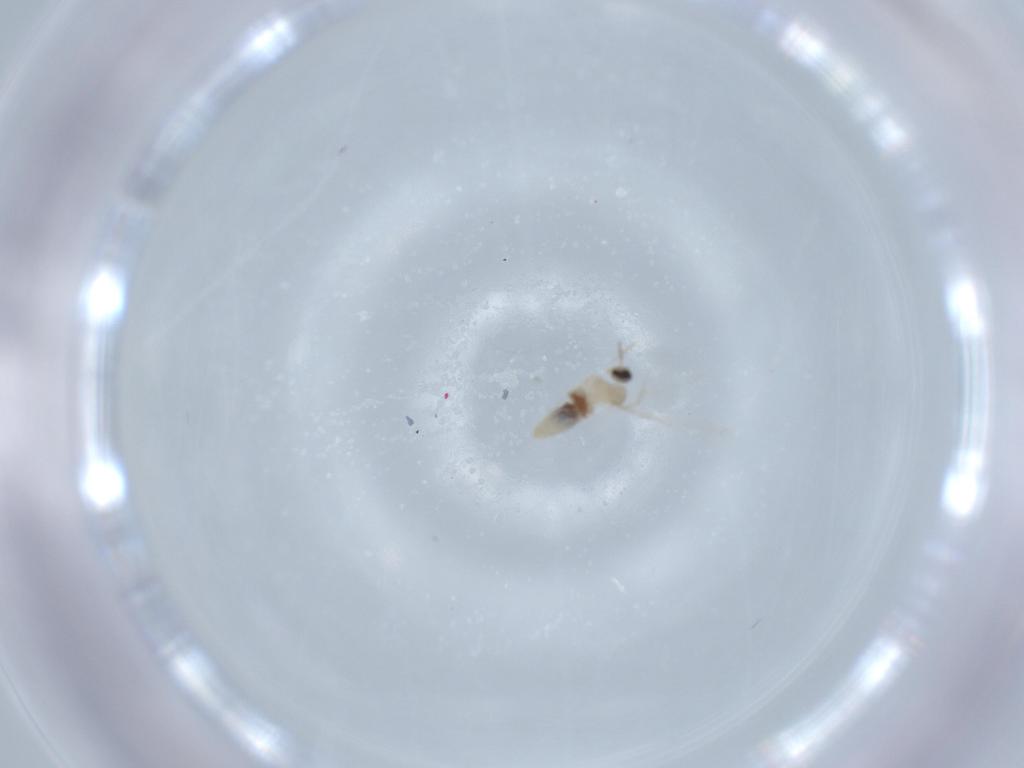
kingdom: Animalia
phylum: Arthropoda
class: Insecta
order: Diptera
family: Cecidomyiidae
